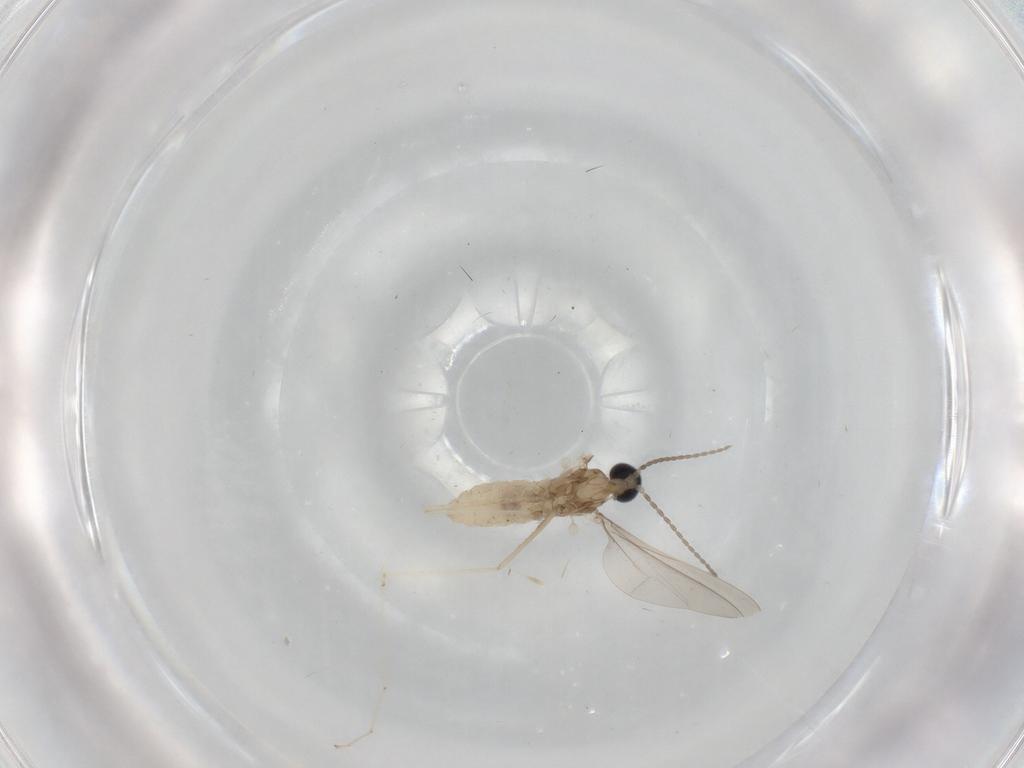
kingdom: Animalia
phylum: Arthropoda
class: Insecta
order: Diptera
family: Cecidomyiidae
